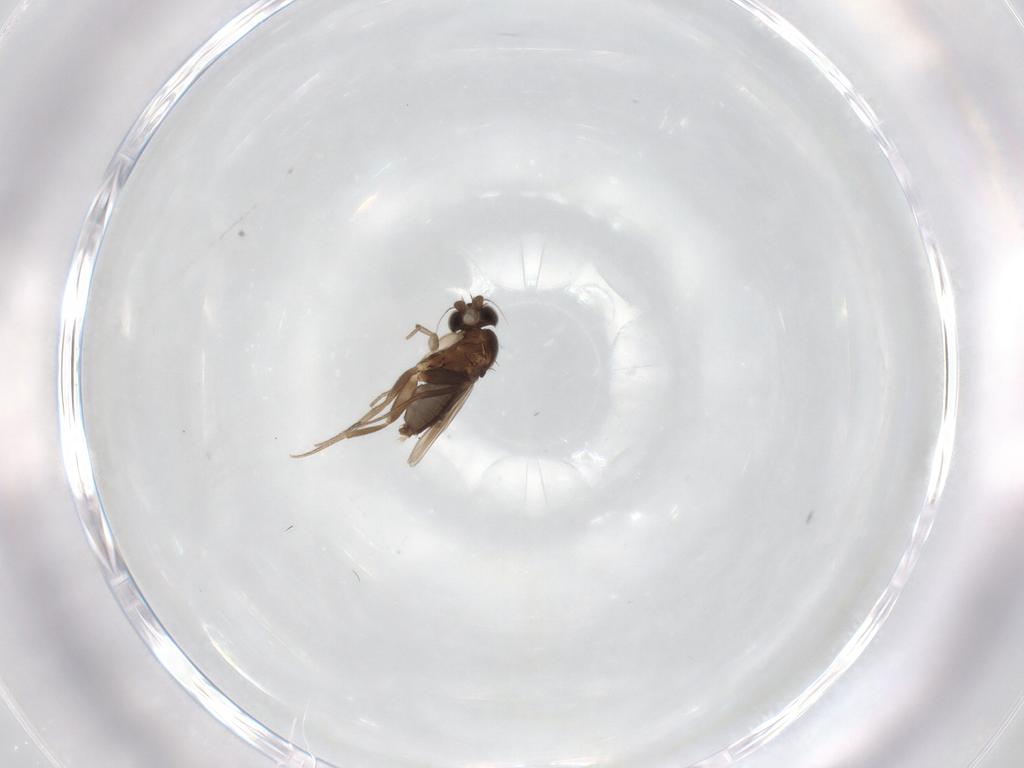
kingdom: Animalia
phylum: Arthropoda
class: Insecta
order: Diptera
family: Phoridae
